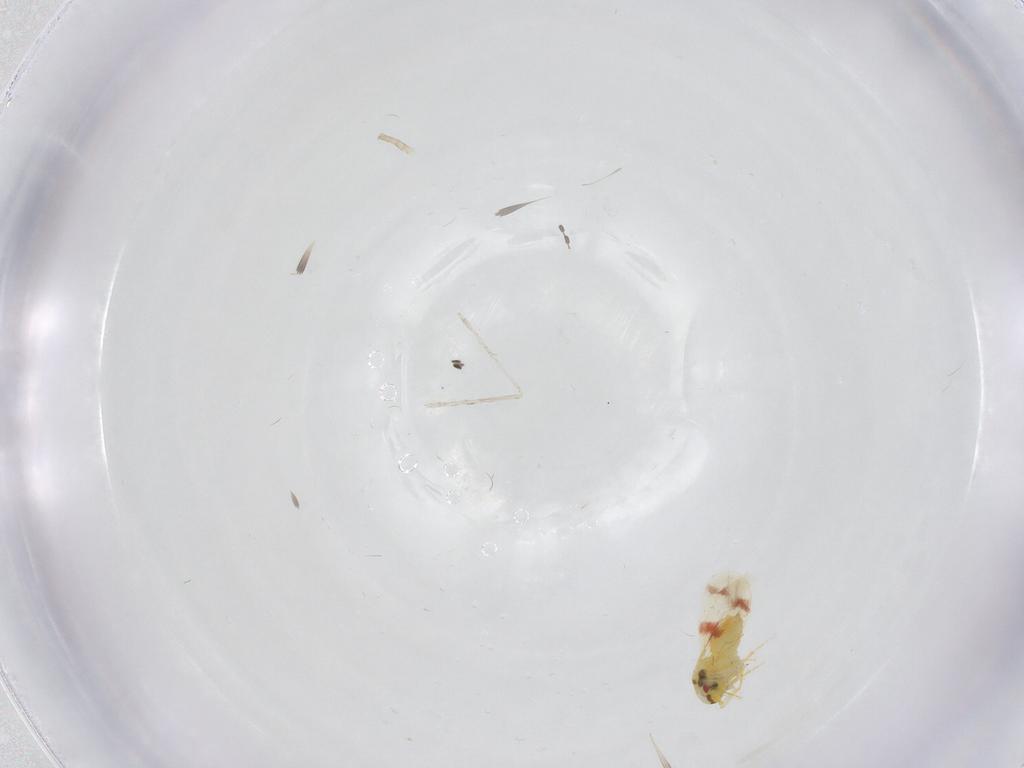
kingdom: Animalia
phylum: Arthropoda
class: Insecta
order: Diptera
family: Cecidomyiidae
